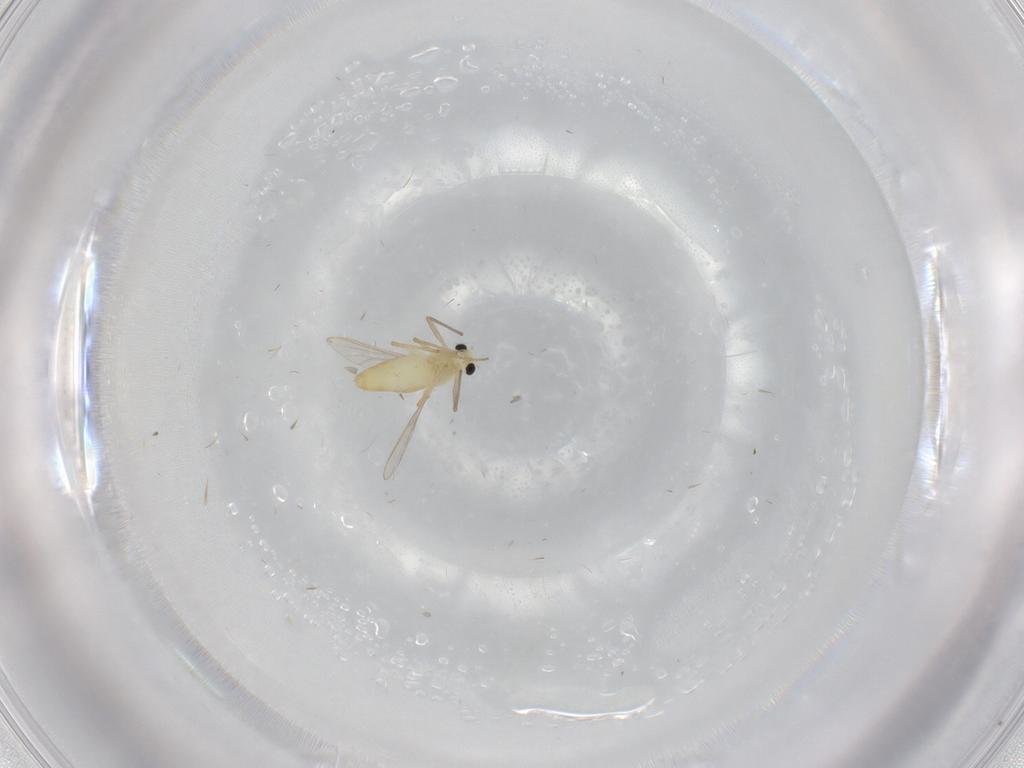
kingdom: Animalia
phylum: Arthropoda
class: Insecta
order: Diptera
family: Chironomidae
